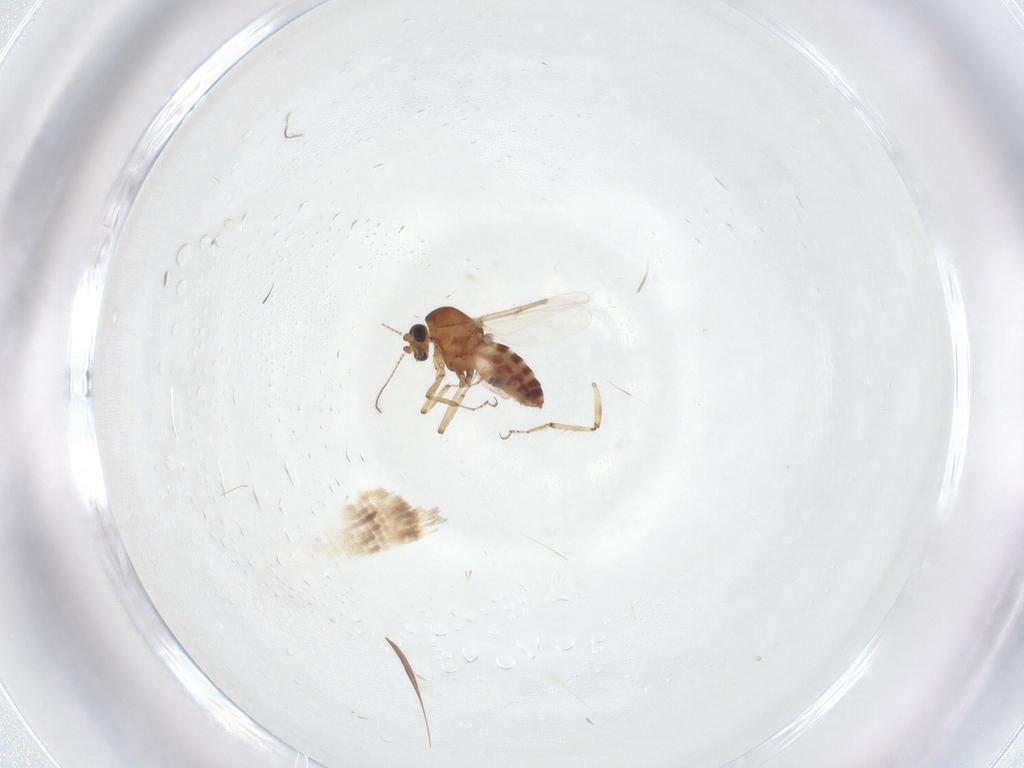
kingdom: Animalia
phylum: Arthropoda
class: Insecta
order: Diptera
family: Ceratopogonidae
